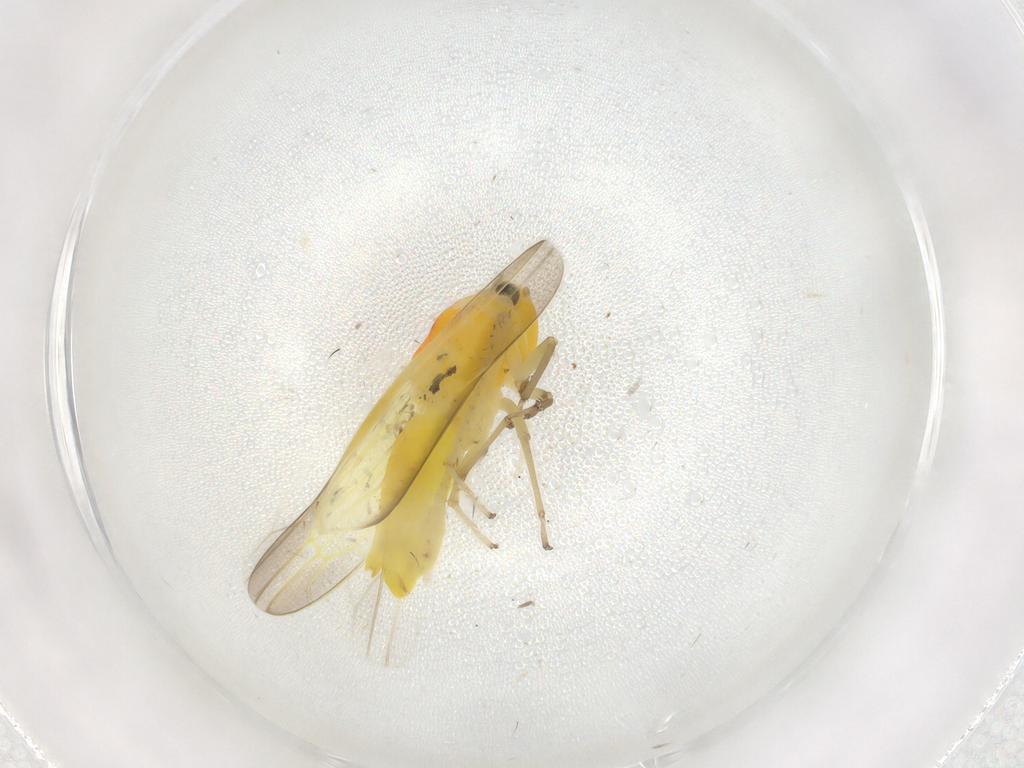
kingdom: Animalia
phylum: Arthropoda
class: Insecta
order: Hemiptera
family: Cicadellidae
